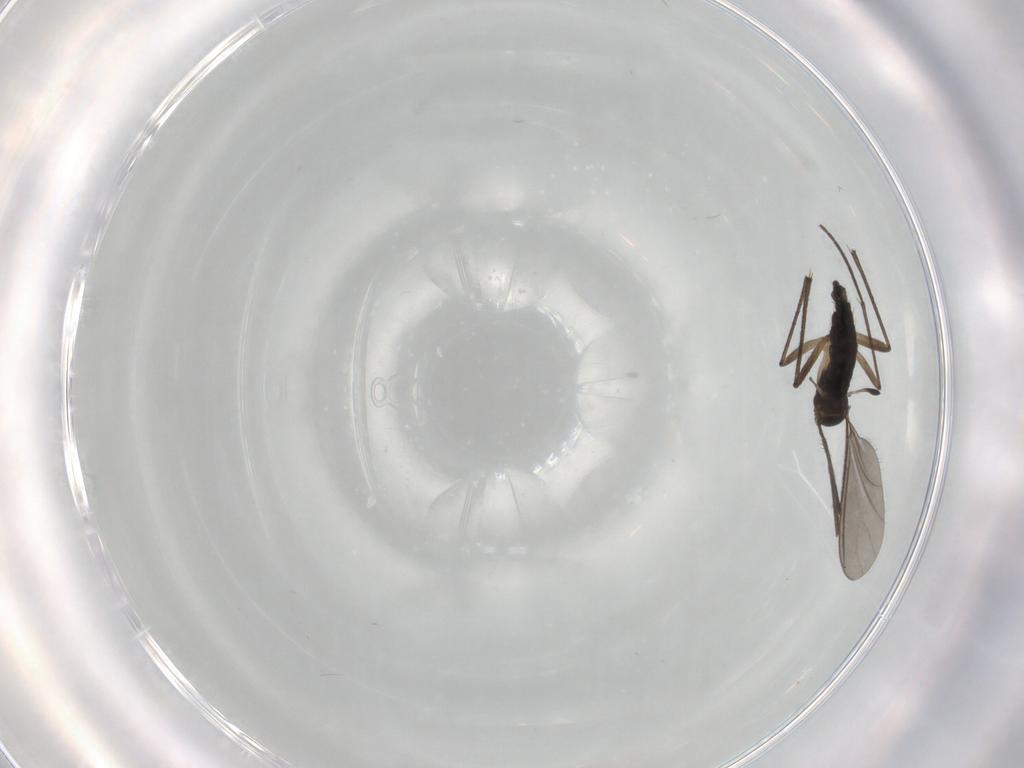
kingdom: Animalia
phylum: Arthropoda
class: Insecta
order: Diptera
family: Sciaridae
